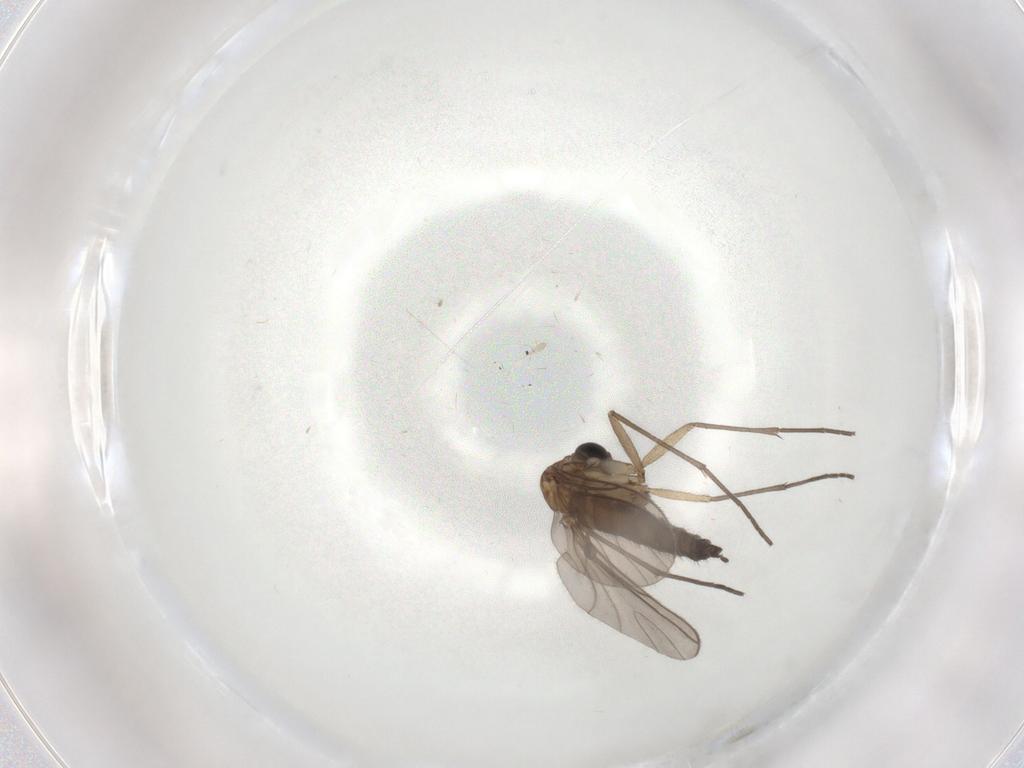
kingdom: Animalia
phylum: Arthropoda
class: Insecta
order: Diptera
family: Sciaridae
